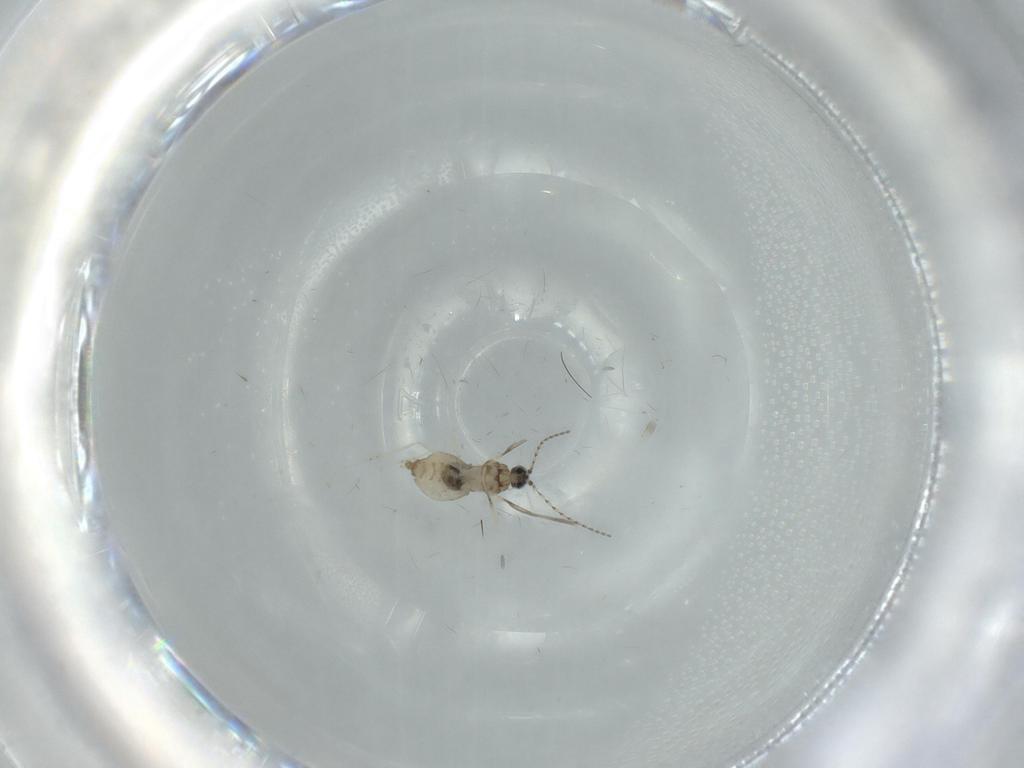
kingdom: Animalia
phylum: Arthropoda
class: Insecta
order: Diptera
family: Cecidomyiidae
